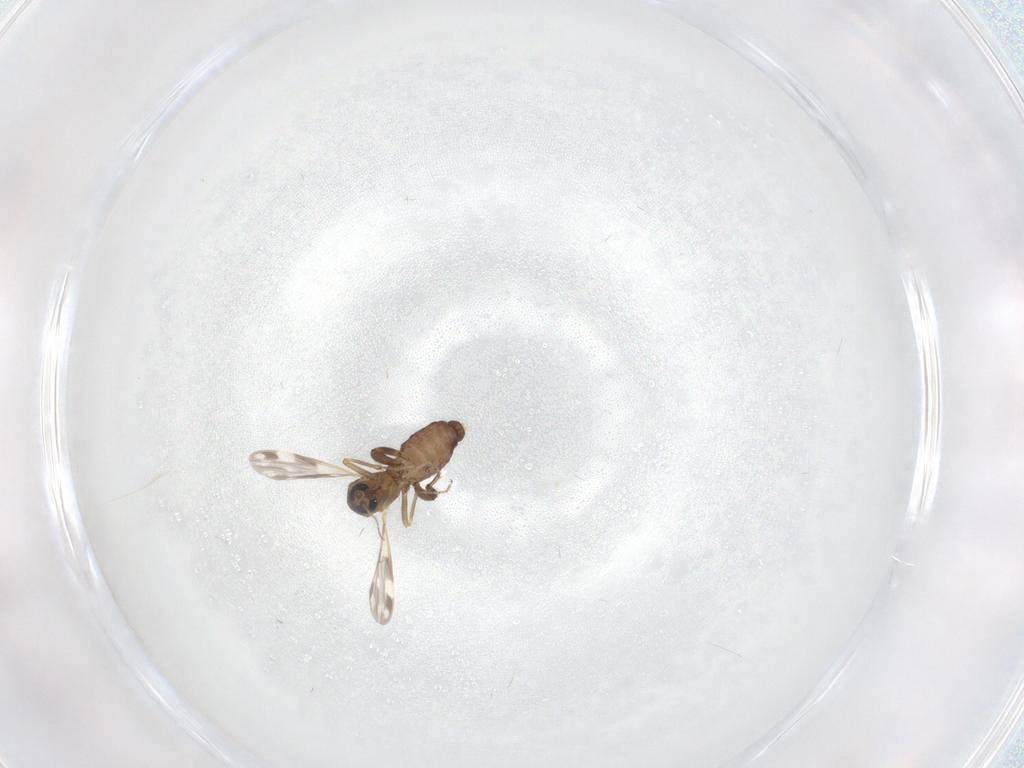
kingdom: Animalia
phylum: Arthropoda
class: Insecta
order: Diptera
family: Ceratopogonidae
